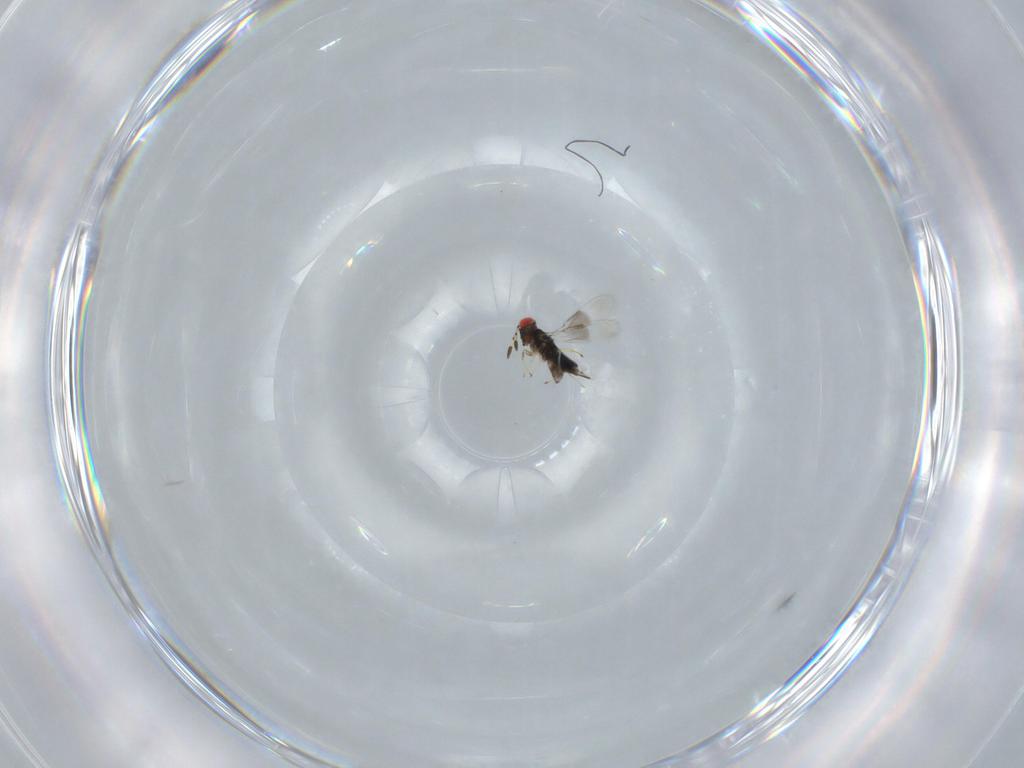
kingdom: Animalia
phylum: Arthropoda
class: Insecta
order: Hymenoptera
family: Azotidae
